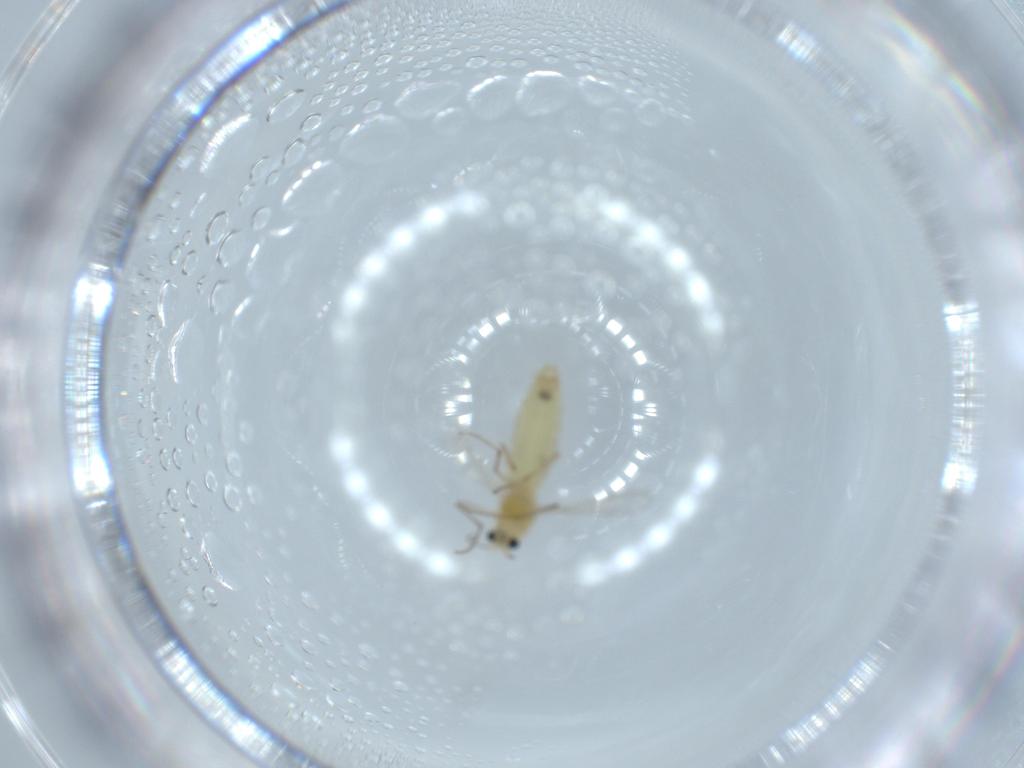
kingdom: Animalia
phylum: Arthropoda
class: Insecta
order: Diptera
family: Chironomidae
